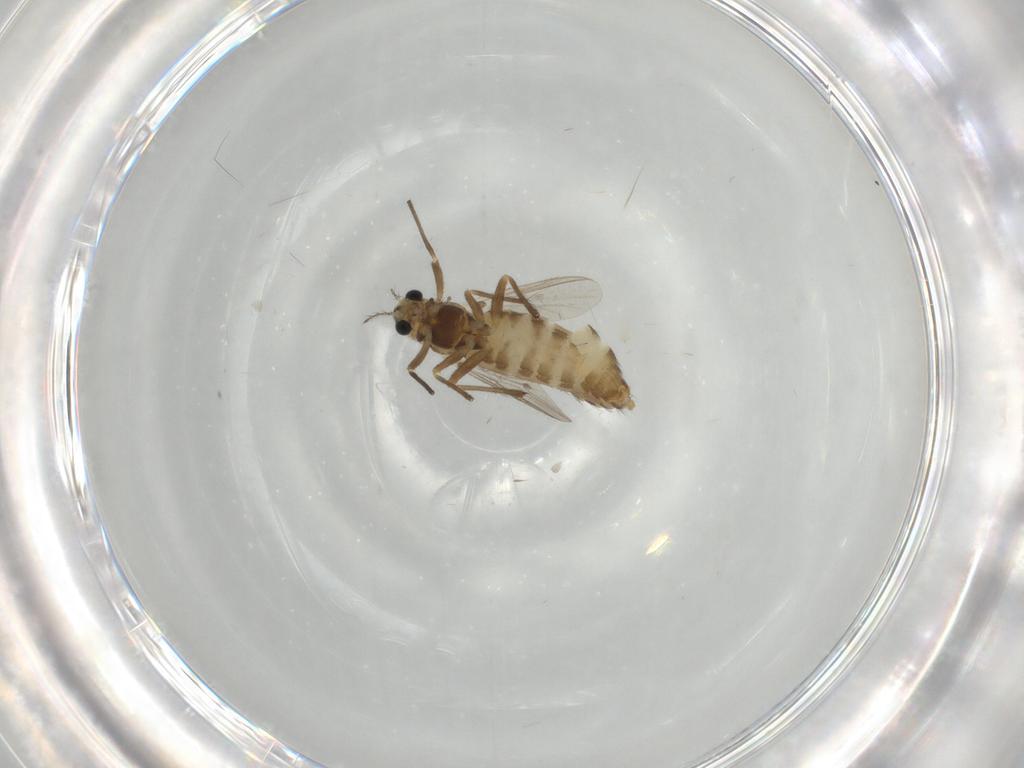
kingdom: Animalia
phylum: Arthropoda
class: Insecta
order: Diptera
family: Chironomidae
